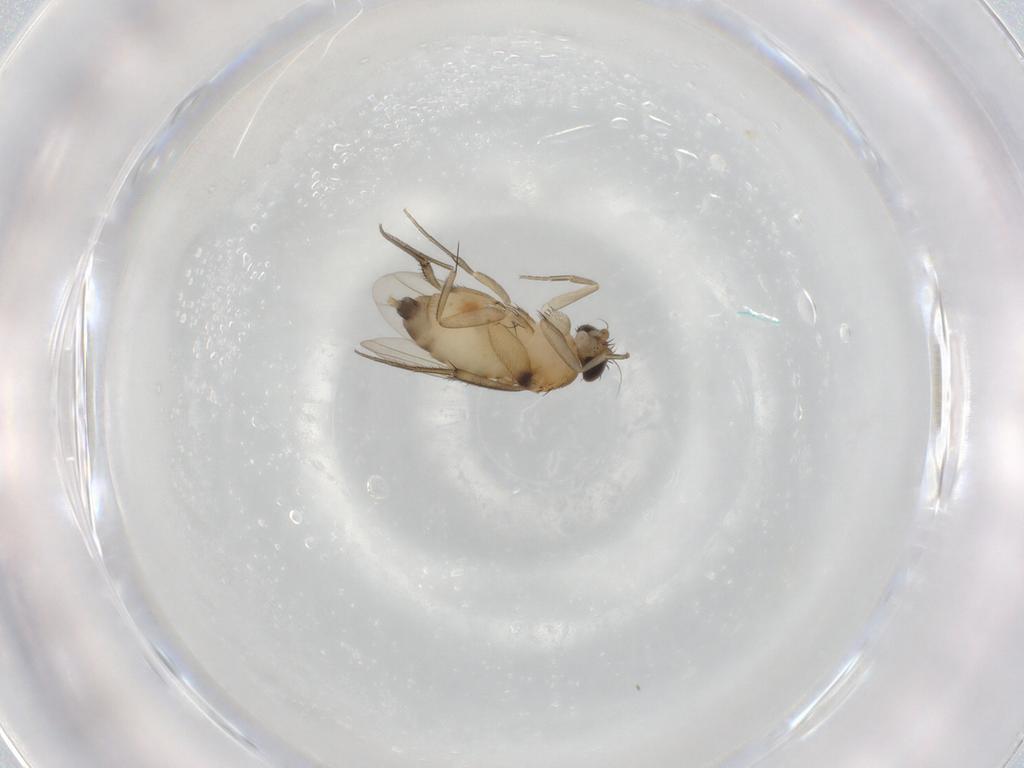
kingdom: Animalia
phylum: Arthropoda
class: Insecta
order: Diptera
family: Phoridae
